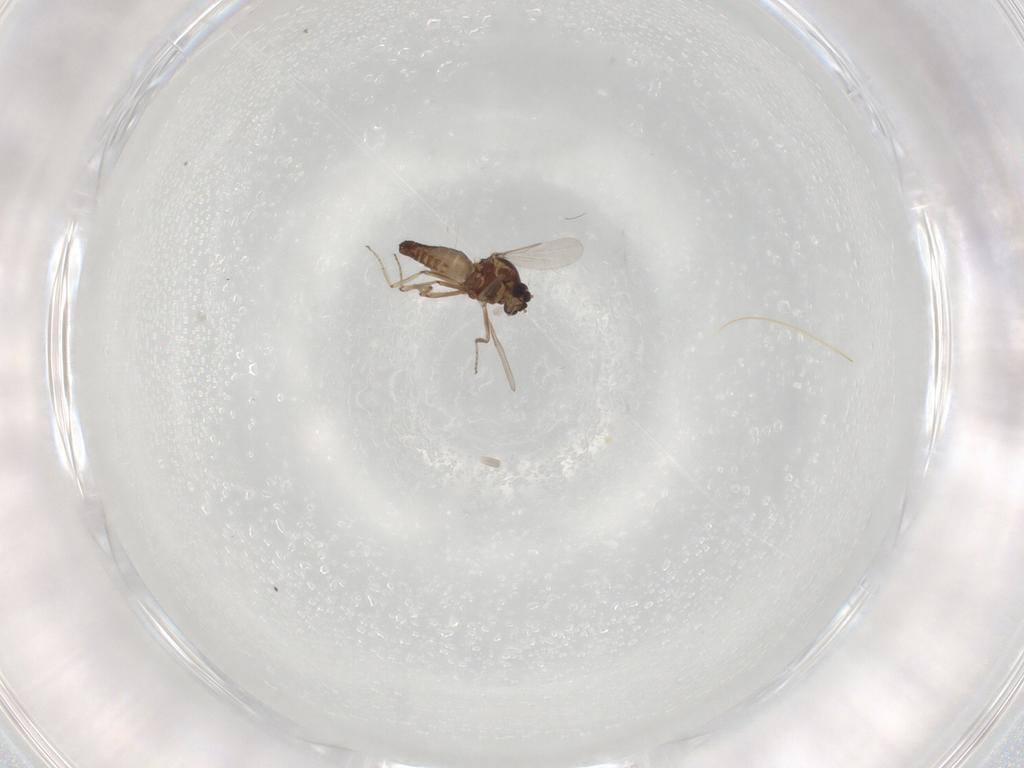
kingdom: Animalia
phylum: Arthropoda
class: Insecta
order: Diptera
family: Ceratopogonidae
